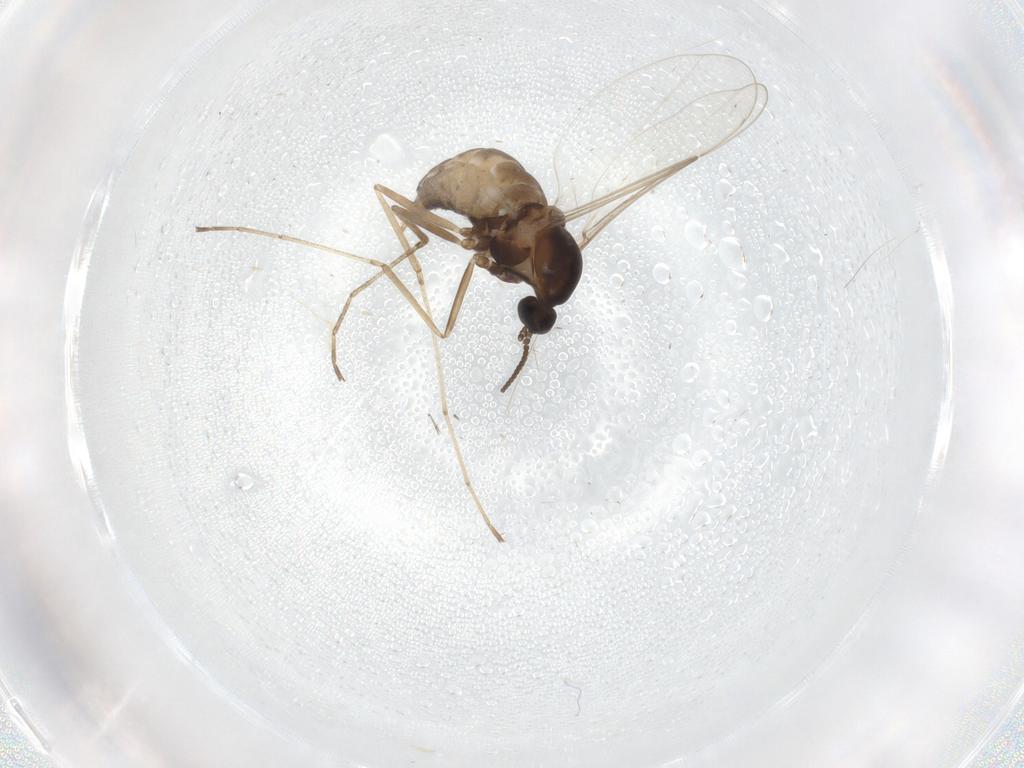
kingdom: Animalia
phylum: Arthropoda
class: Insecta
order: Diptera
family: Cecidomyiidae
